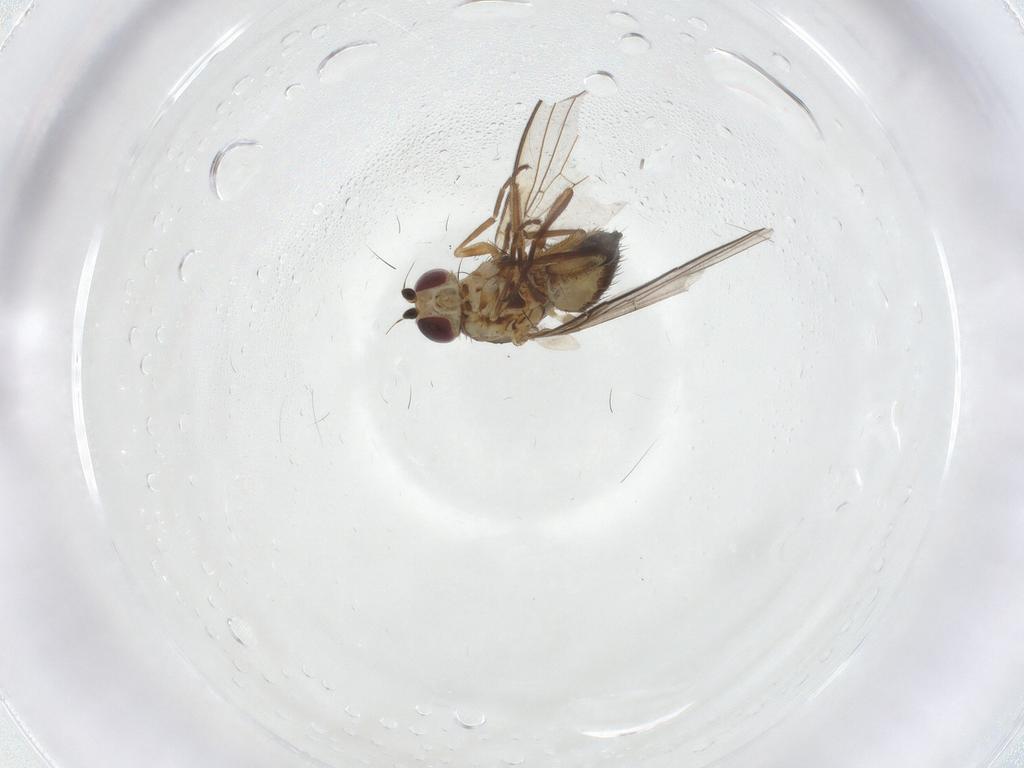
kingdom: Animalia
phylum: Arthropoda
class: Insecta
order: Diptera
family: Agromyzidae
